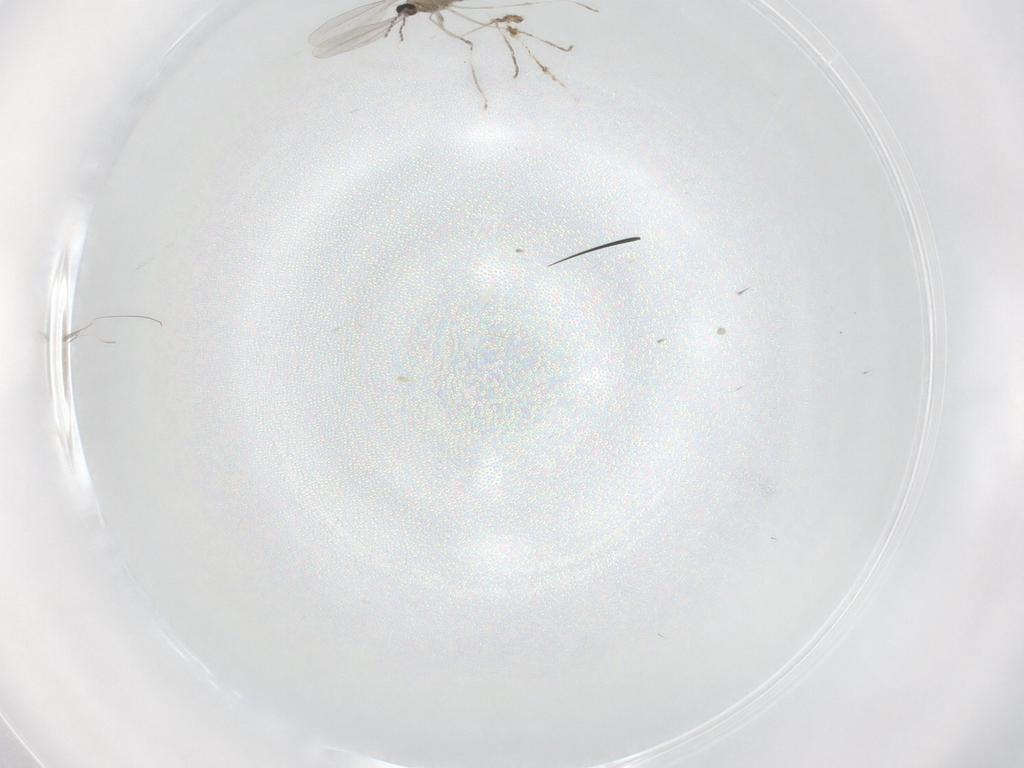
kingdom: Animalia
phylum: Arthropoda
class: Insecta
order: Diptera
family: Cecidomyiidae
